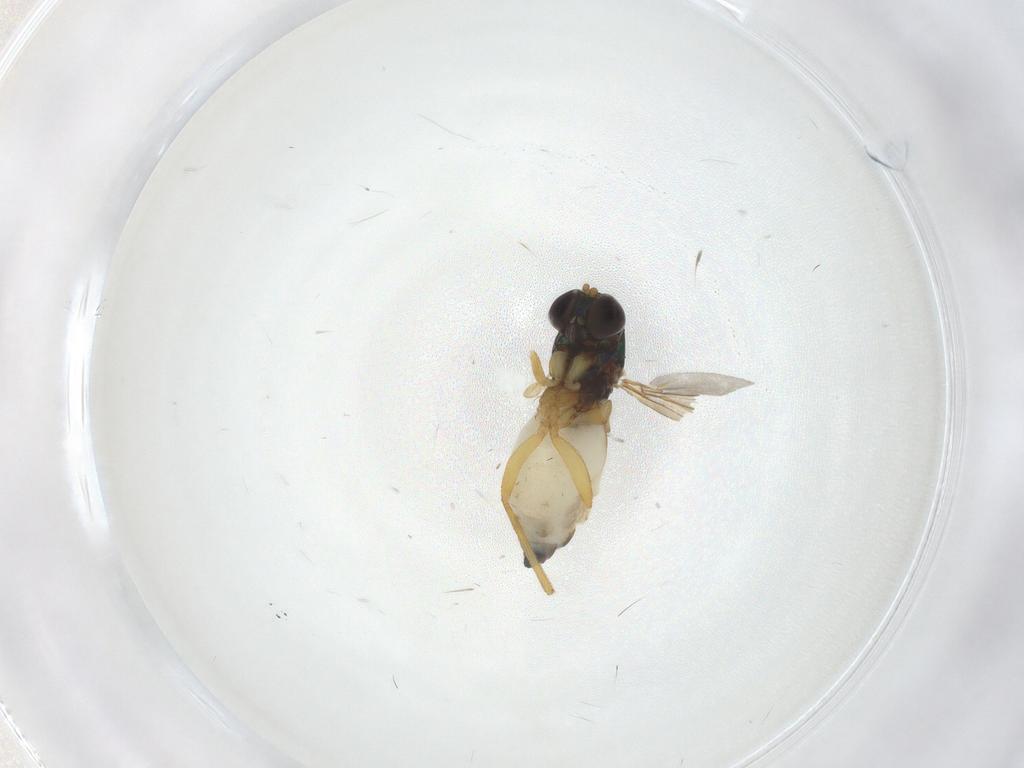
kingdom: Animalia
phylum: Arthropoda
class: Insecta
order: Diptera
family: Dolichopodidae
